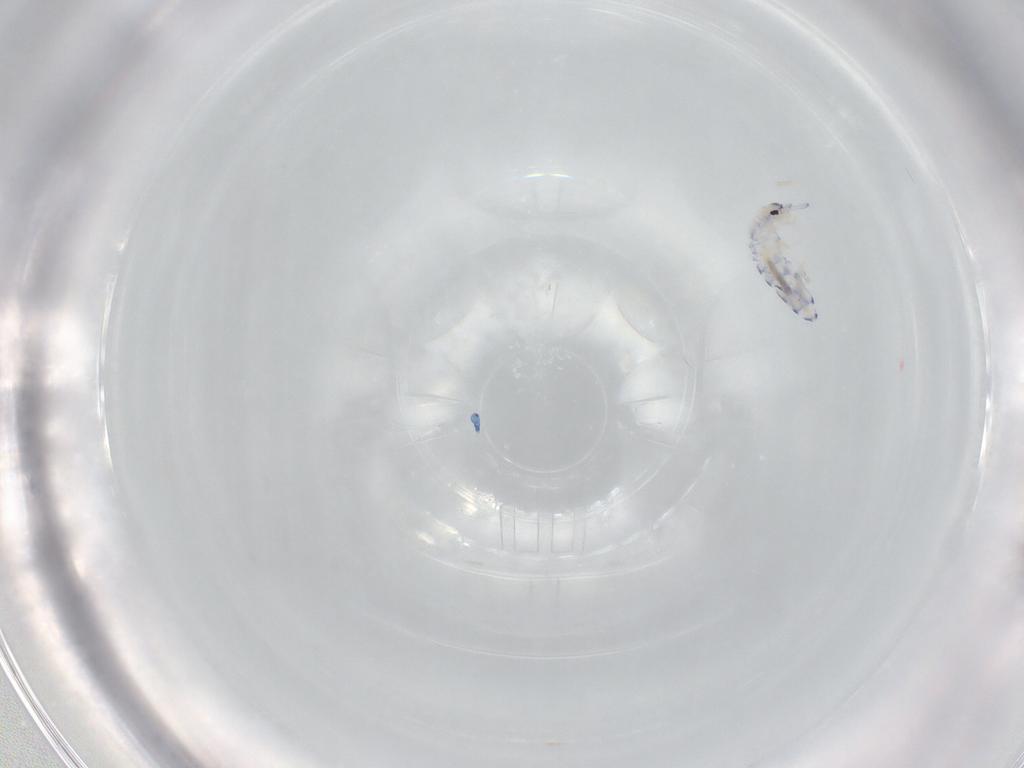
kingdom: Animalia
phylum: Arthropoda
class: Collembola
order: Entomobryomorpha
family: Entomobryidae
